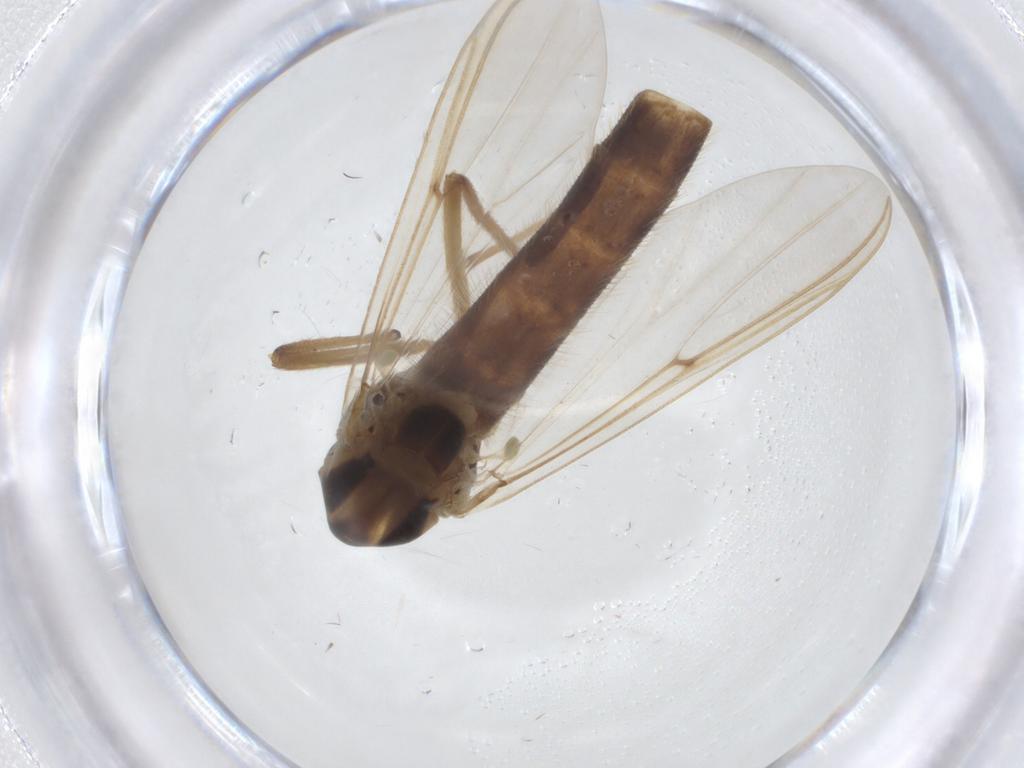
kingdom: Animalia
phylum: Arthropoda
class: Insecta
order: Diptera
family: Chironomidae
